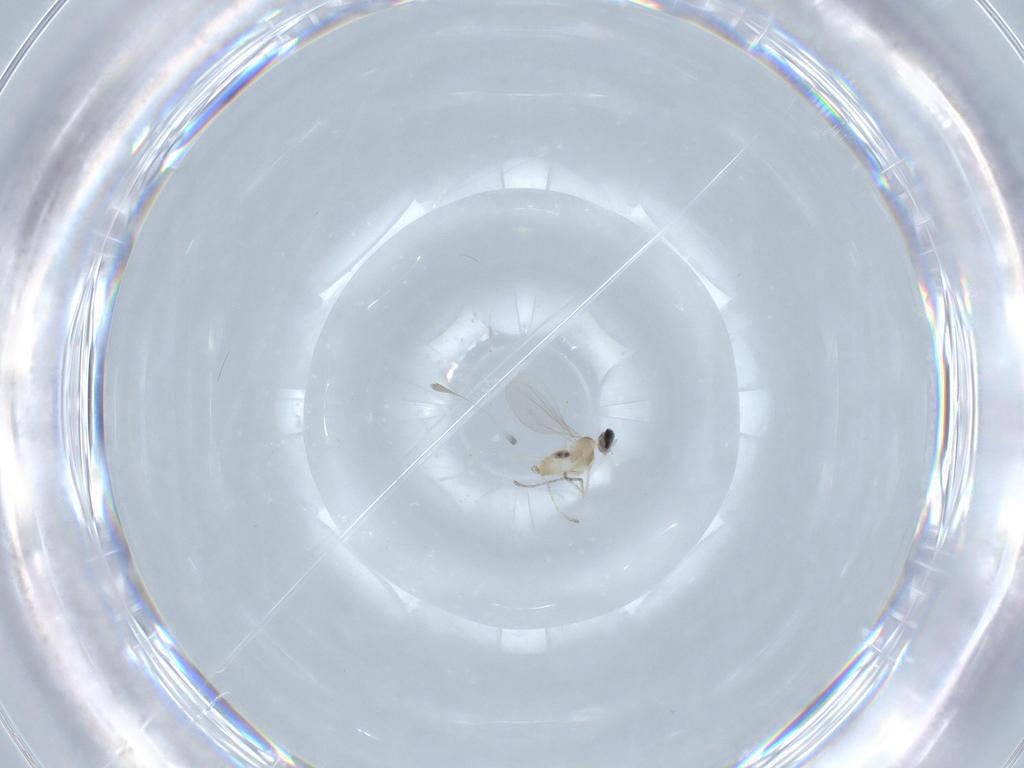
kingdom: Animalia
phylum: Arthropoda
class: Insecta
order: Diptera
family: Cecidomyiidae
